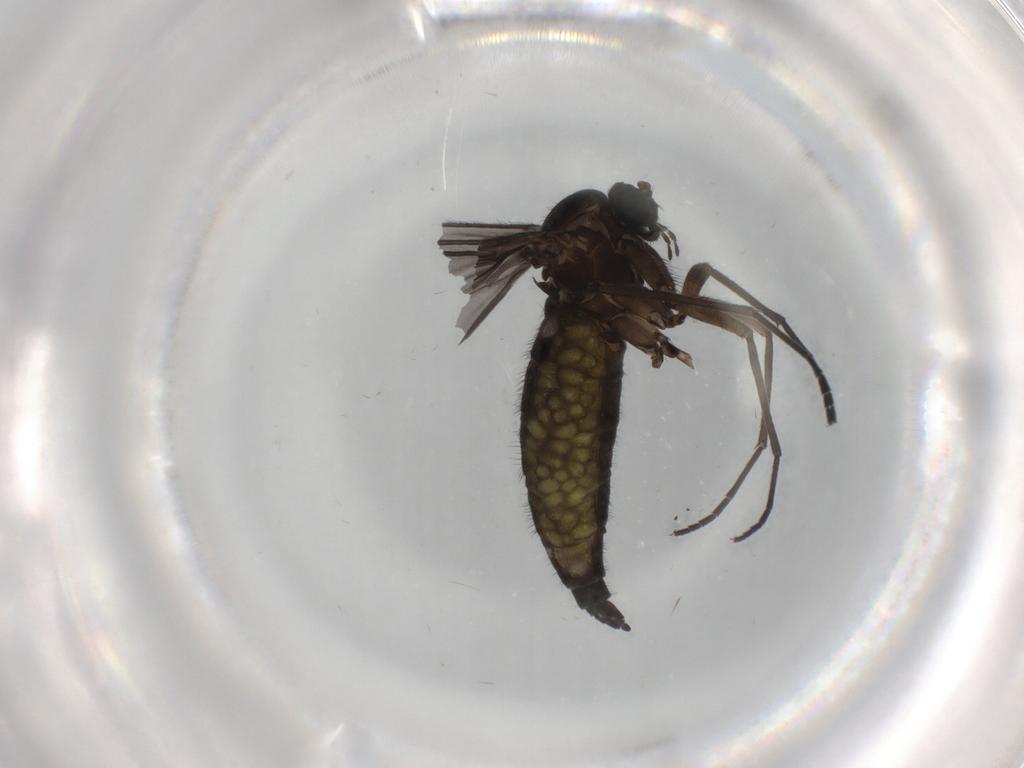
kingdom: Animalia
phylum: Arthropoda
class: Insecta
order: Diptera
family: Sciaridae
